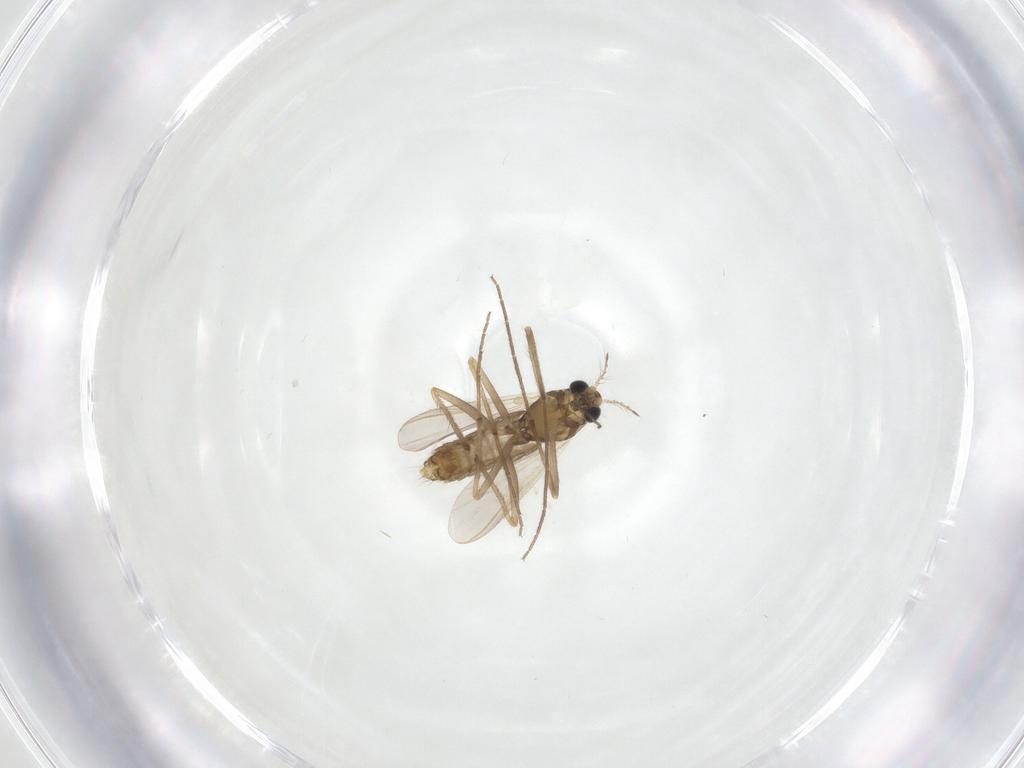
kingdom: Animalia
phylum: Arthropoda
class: Insecta
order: Diptera
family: Chironomidae
